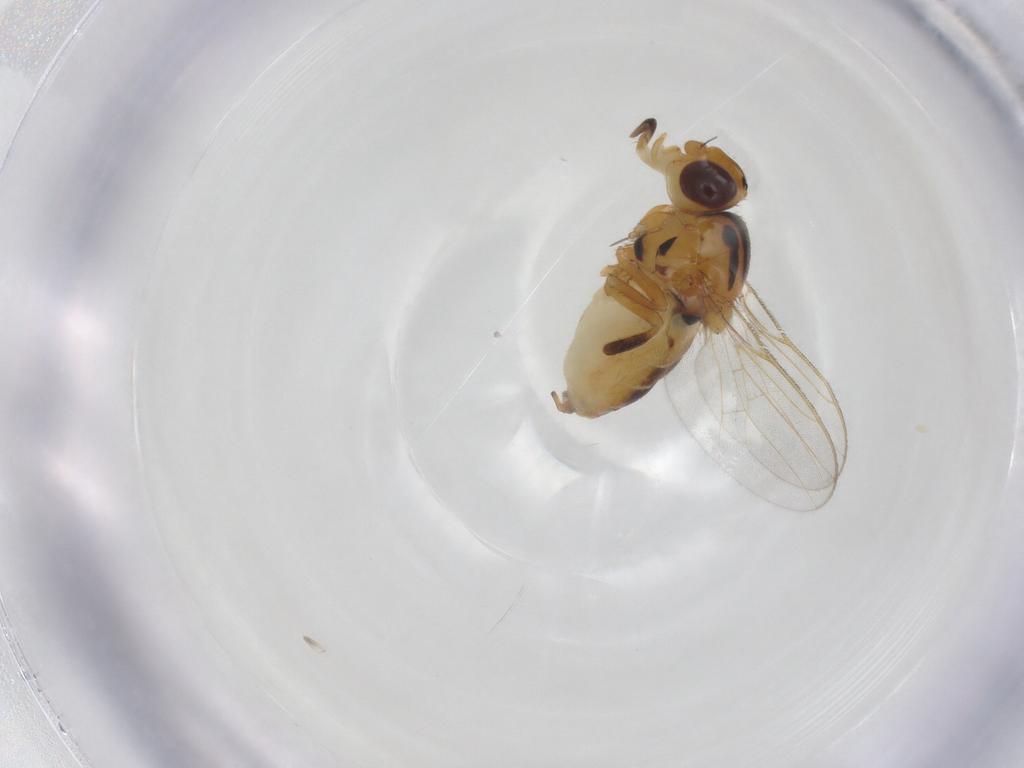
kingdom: Animalia
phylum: Arthropoda
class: Insecta
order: Diptera
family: Chloropidae
